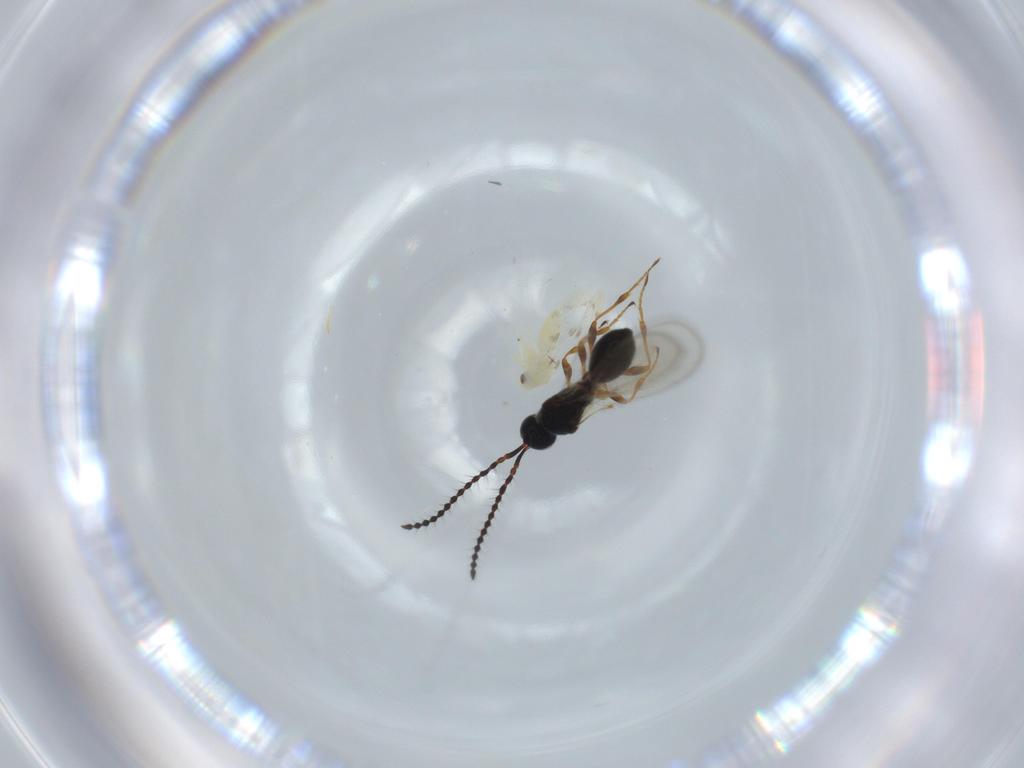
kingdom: Animalia
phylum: Arthropoda
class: Insecta
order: Hymenoptera
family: Diapriidae
